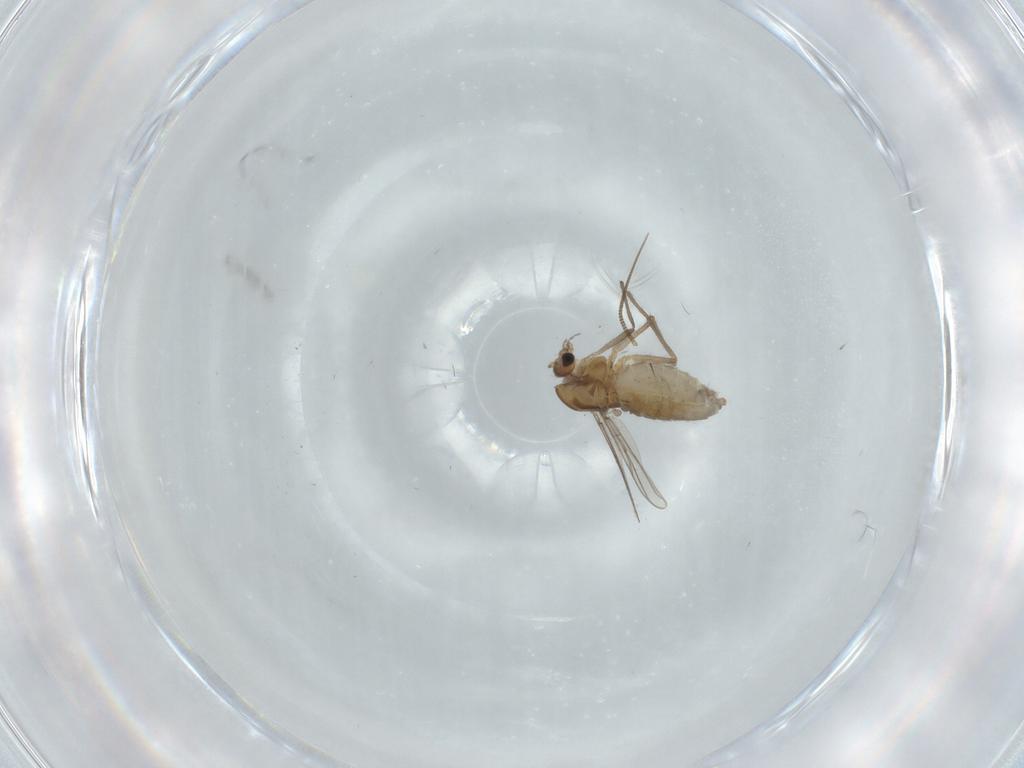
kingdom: Animalia
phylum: Arthropoda
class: Insecta
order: Diptera
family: Chironomidae
